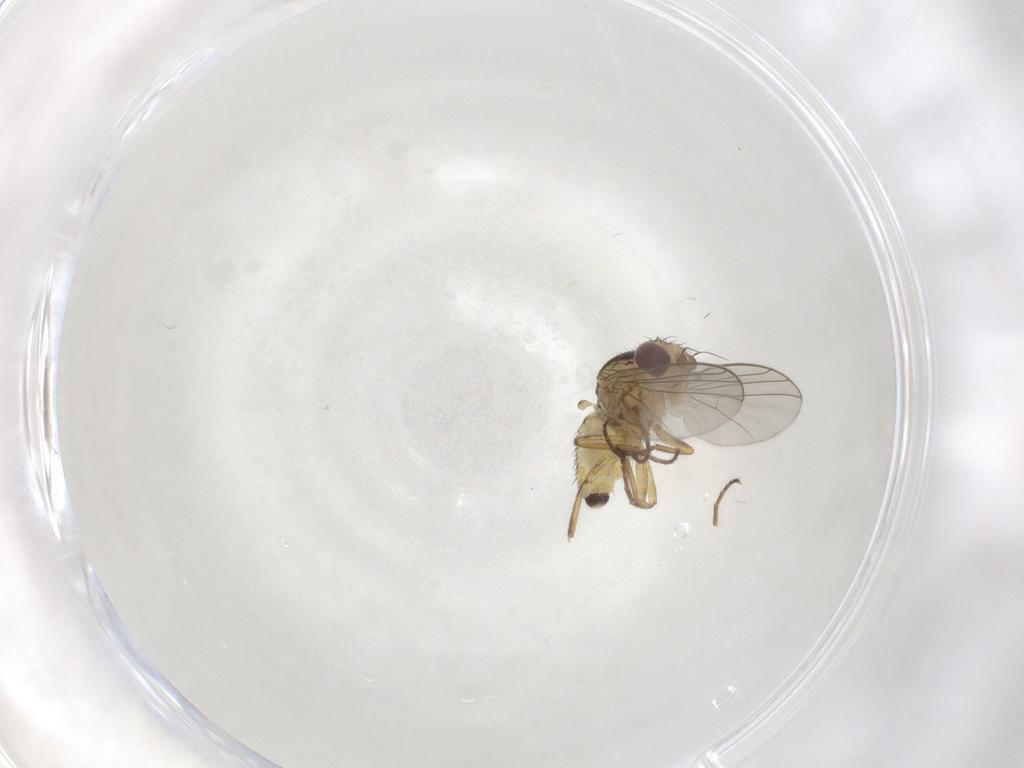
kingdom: Animalia
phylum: Arthropoda
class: Insecta
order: Diptera
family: Agromyzidae
